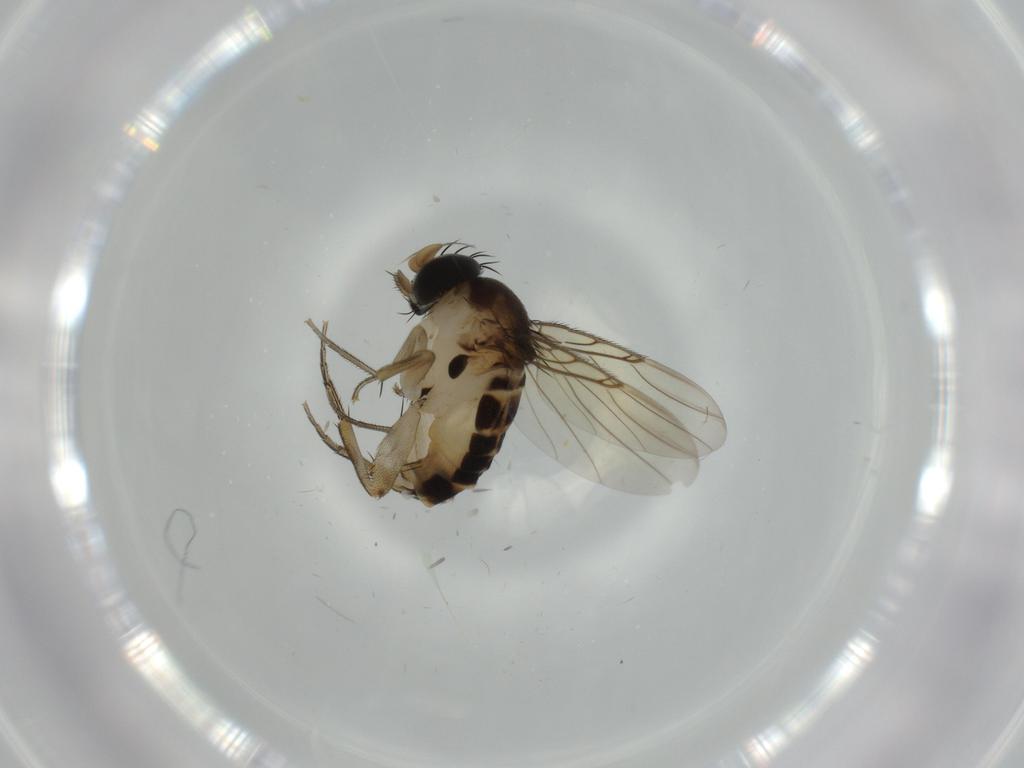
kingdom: Animalia
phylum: Arthropoda
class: Insecta
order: Diptera
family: Phoridae
